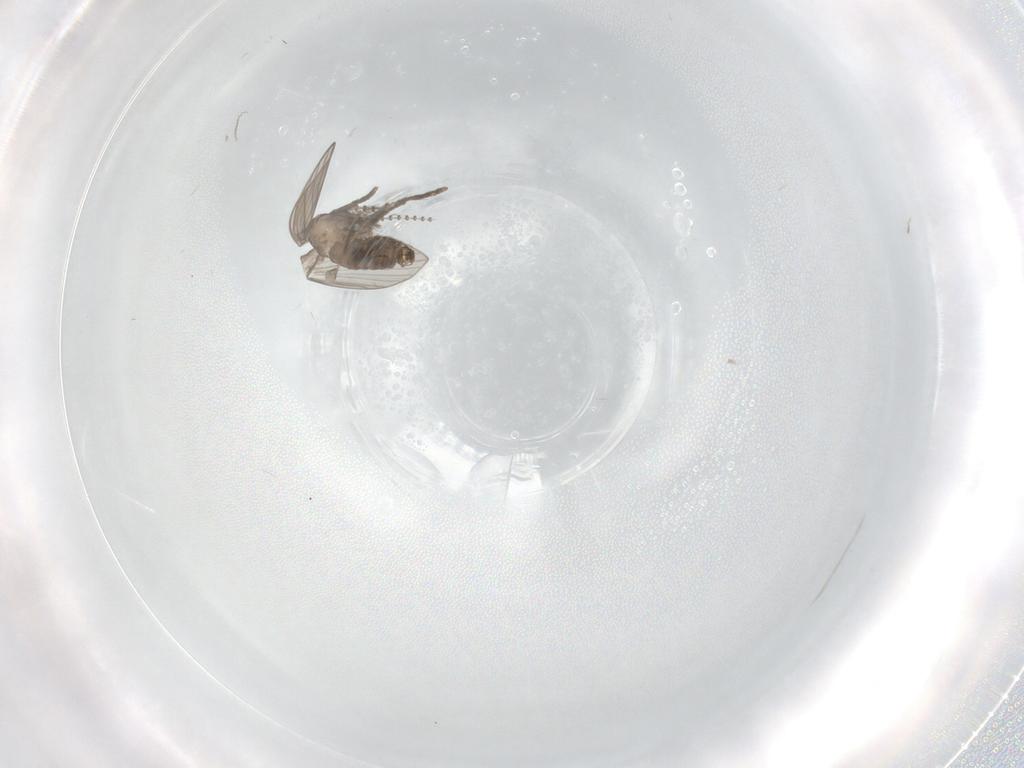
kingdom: Animalia
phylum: Arthropoda
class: Insecta
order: Diptera
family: Psychodidae
